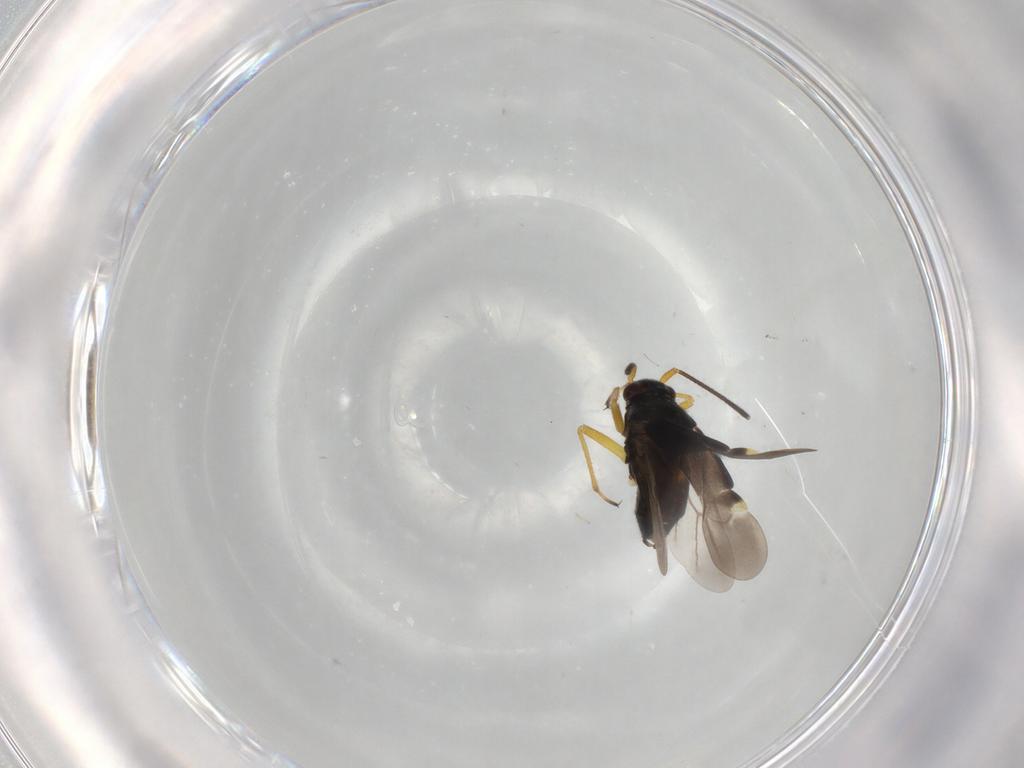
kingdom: Animalia
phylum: Arthropoda
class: Insecta
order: Hemiptera
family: Miridae
